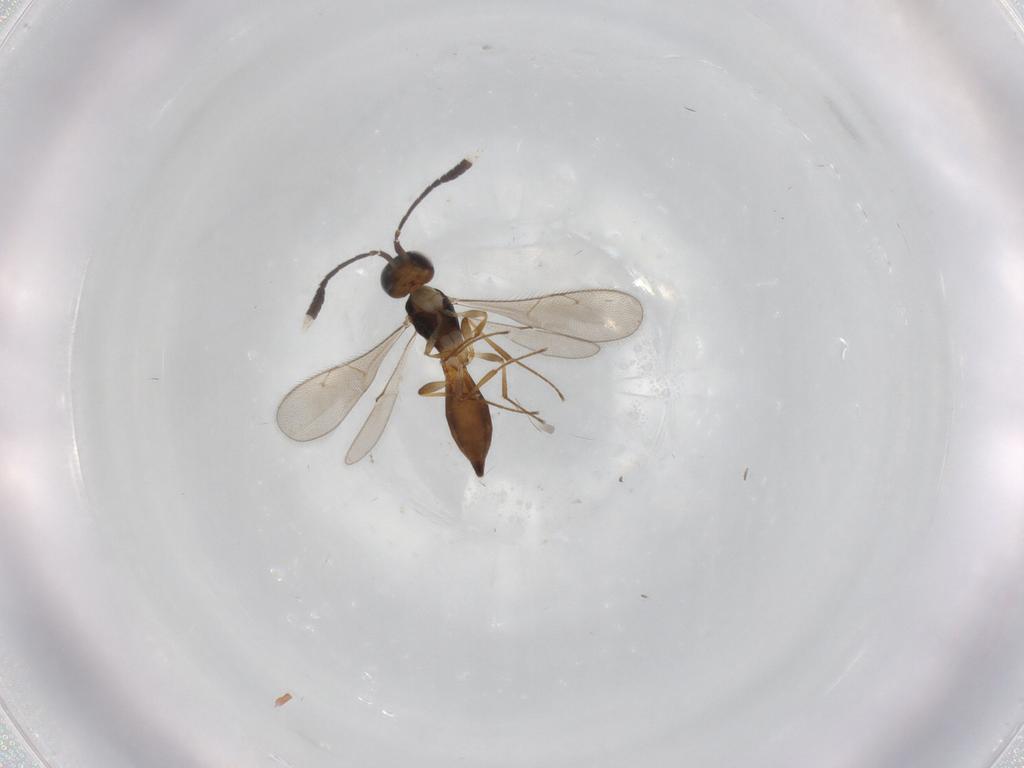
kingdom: Animalia
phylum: Arthropoda
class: Insecta
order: Hymenoptera
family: Scelionidae
